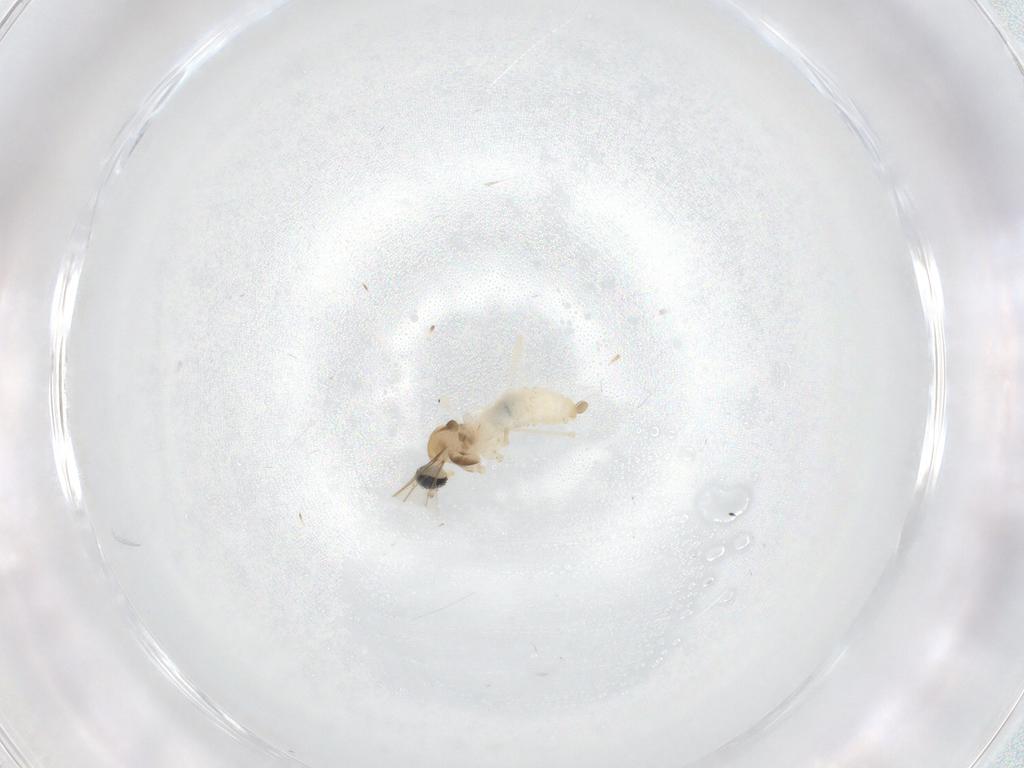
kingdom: Animalia
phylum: Arthropoda
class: Insecta
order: Diptera
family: Cecidomyiidae
